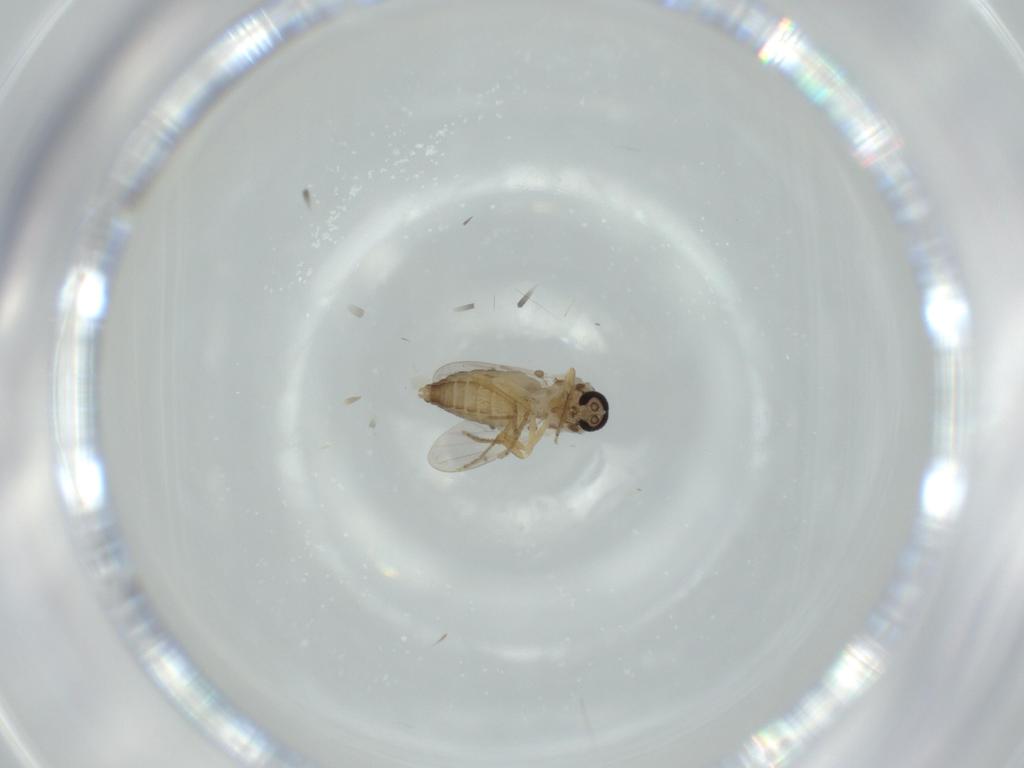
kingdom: Animalia
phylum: Arthropoda
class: Insecta
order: Diptera
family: Ceratopogonidae
